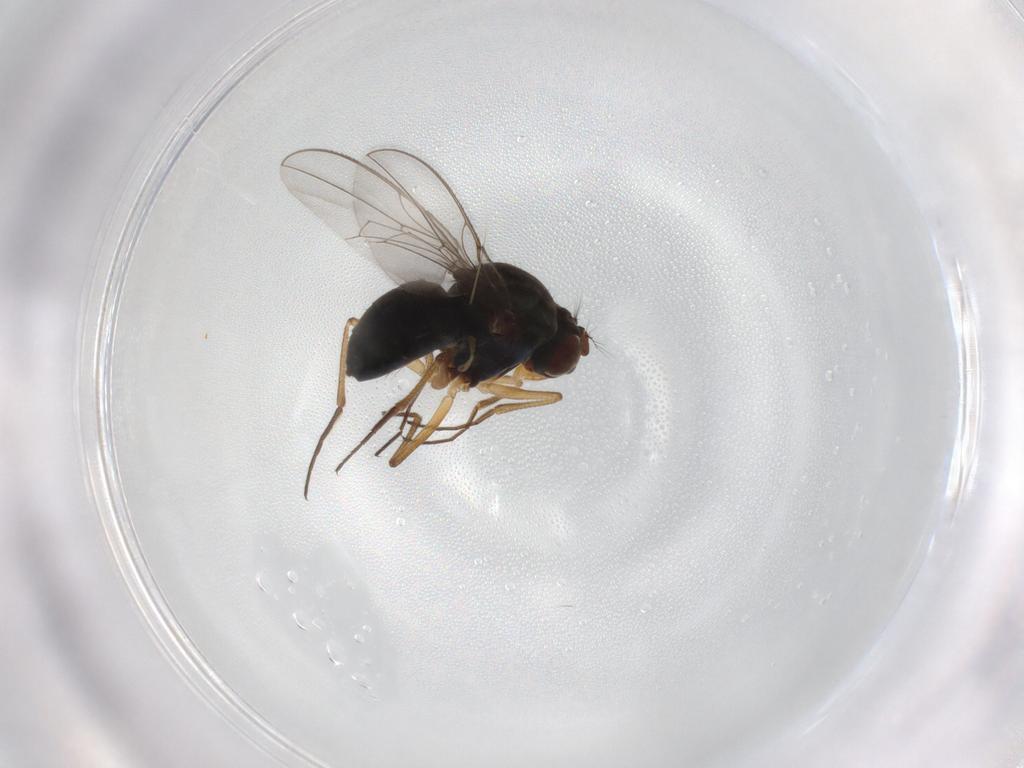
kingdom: Animalia
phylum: Arthropoda
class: Insecta
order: Diptera
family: Ephydridae
